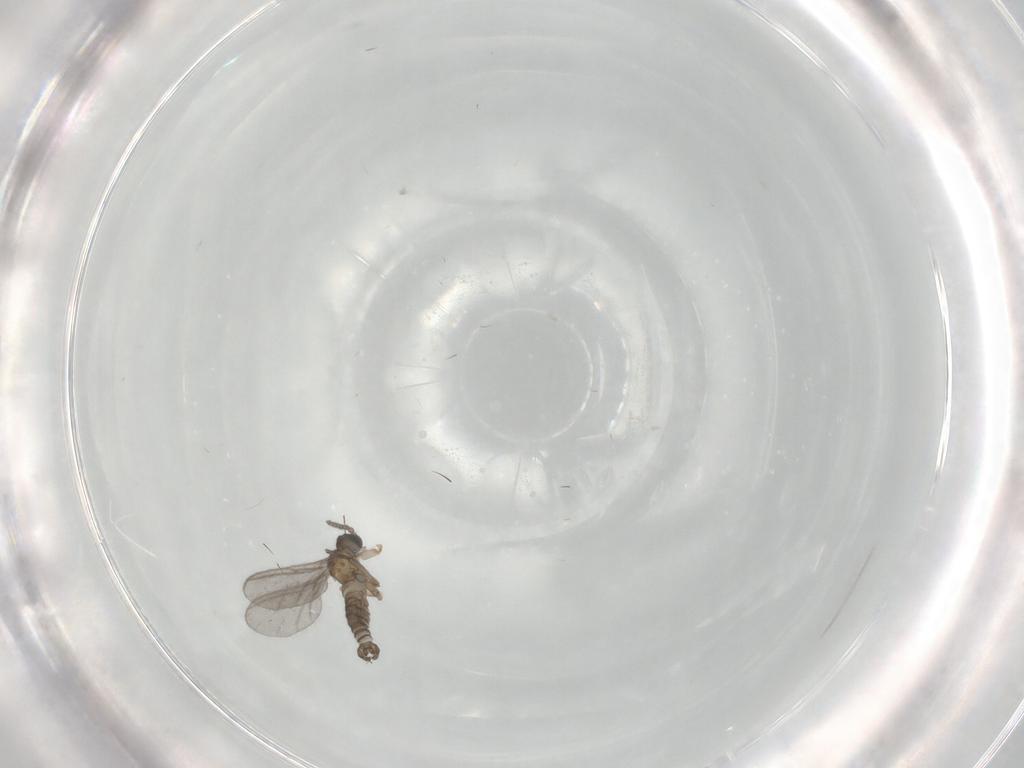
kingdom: Animalia
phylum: Arthropoda
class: Insecta
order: Diptera
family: Sciaridae
